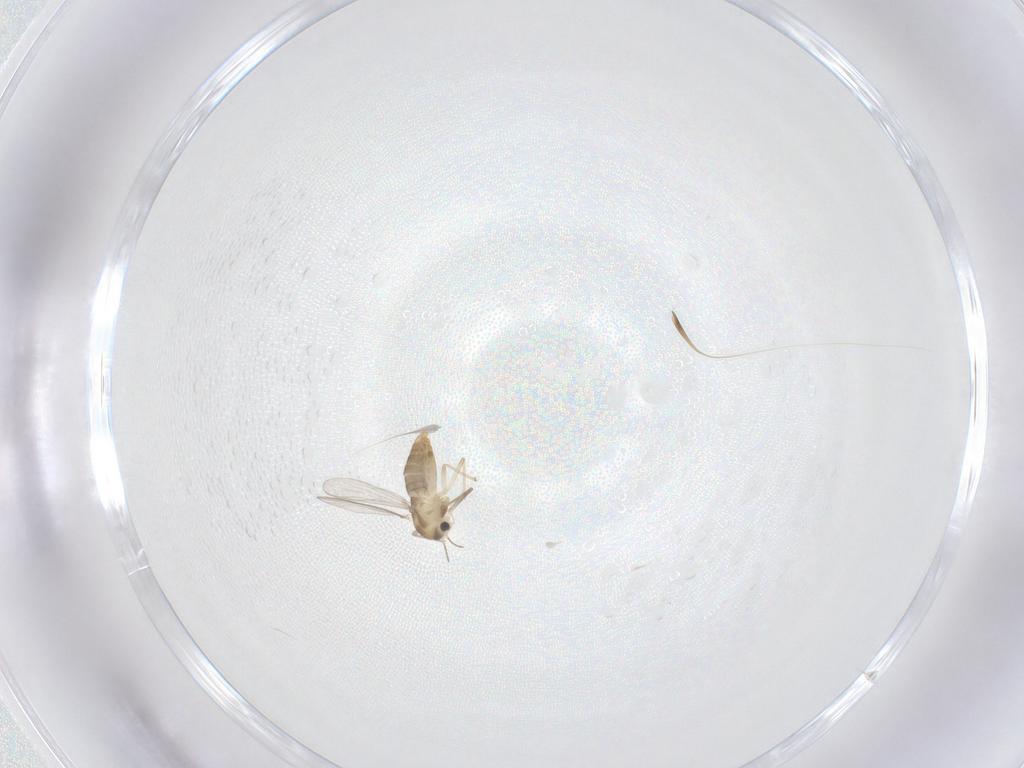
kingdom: Animalia
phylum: Arthropoda
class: Insecta
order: Diptera
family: Chironomidae
